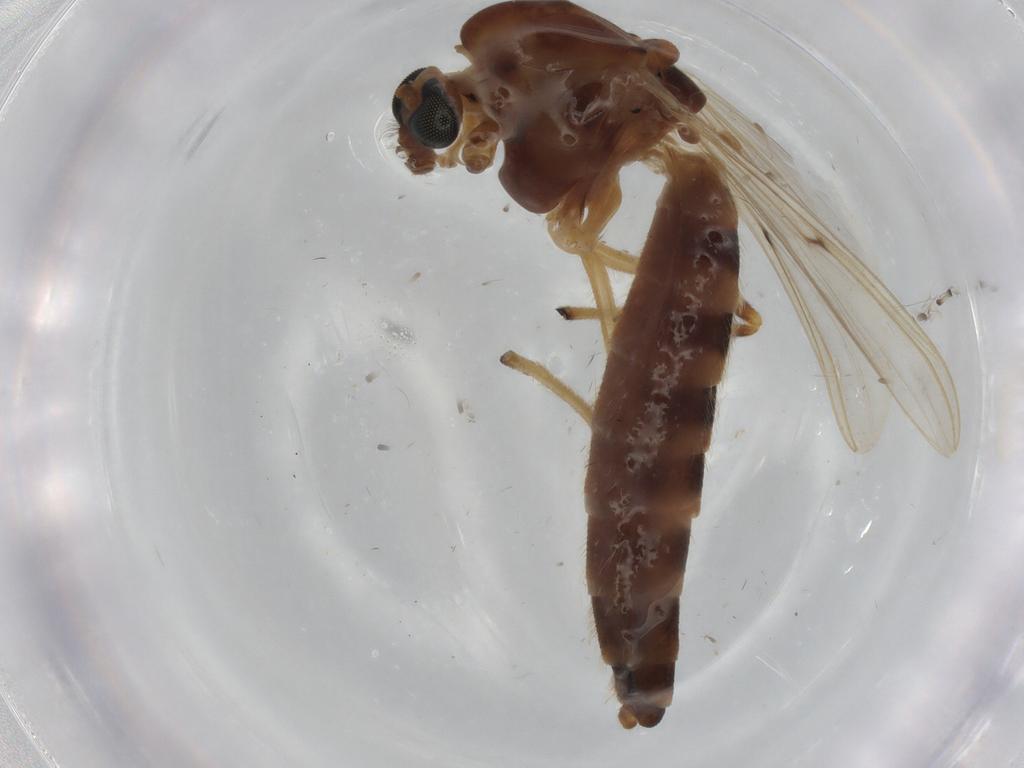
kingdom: Animalia
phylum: Arthropoda
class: Insecta
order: Diptera
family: Chironomidae
